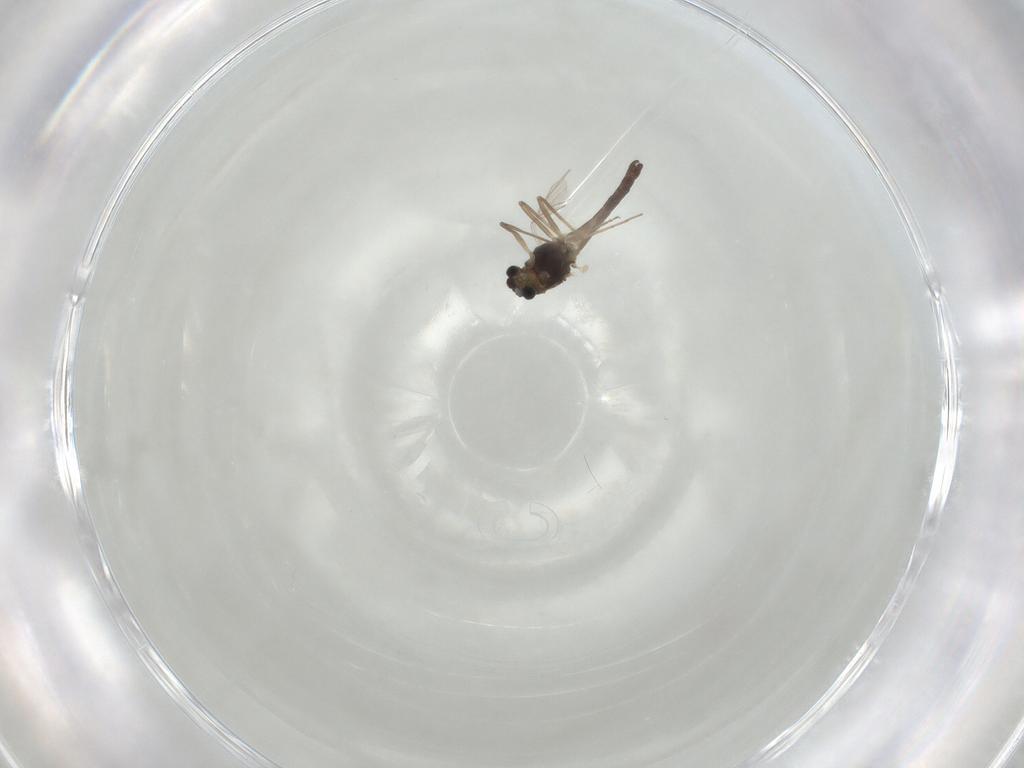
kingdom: Animalia
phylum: Arthropoda
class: Insecta
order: Diptera
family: Chironomidae
